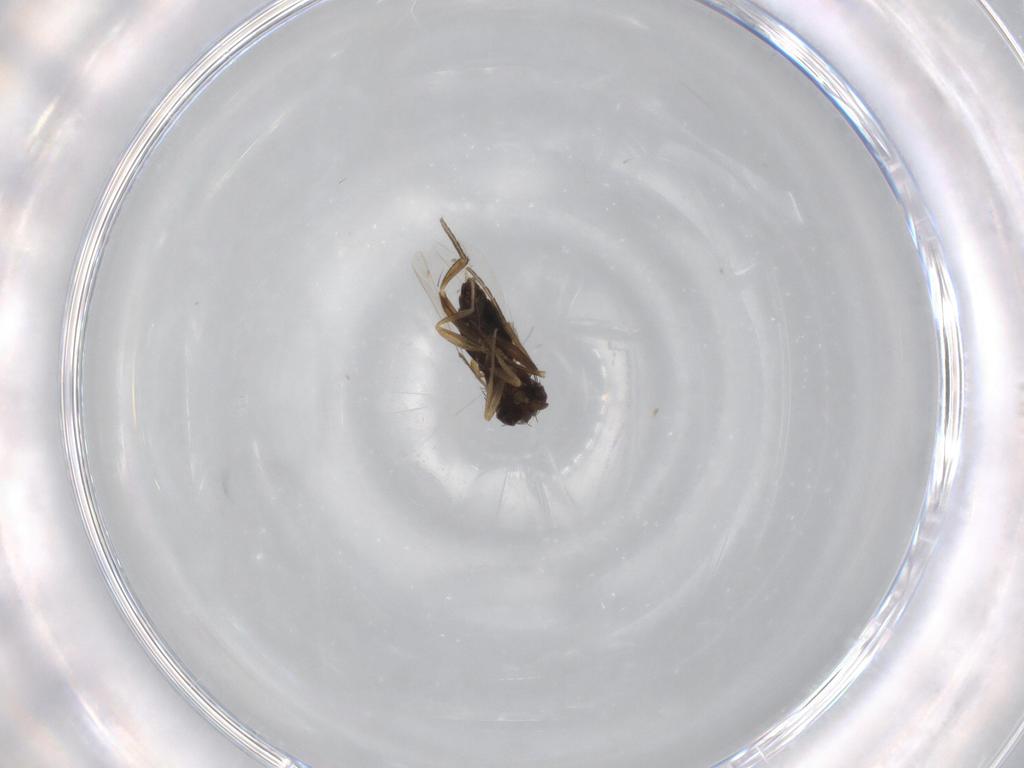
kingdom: Animalia
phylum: Arthropoda
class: Insecta
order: Diptera
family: Phoridae
